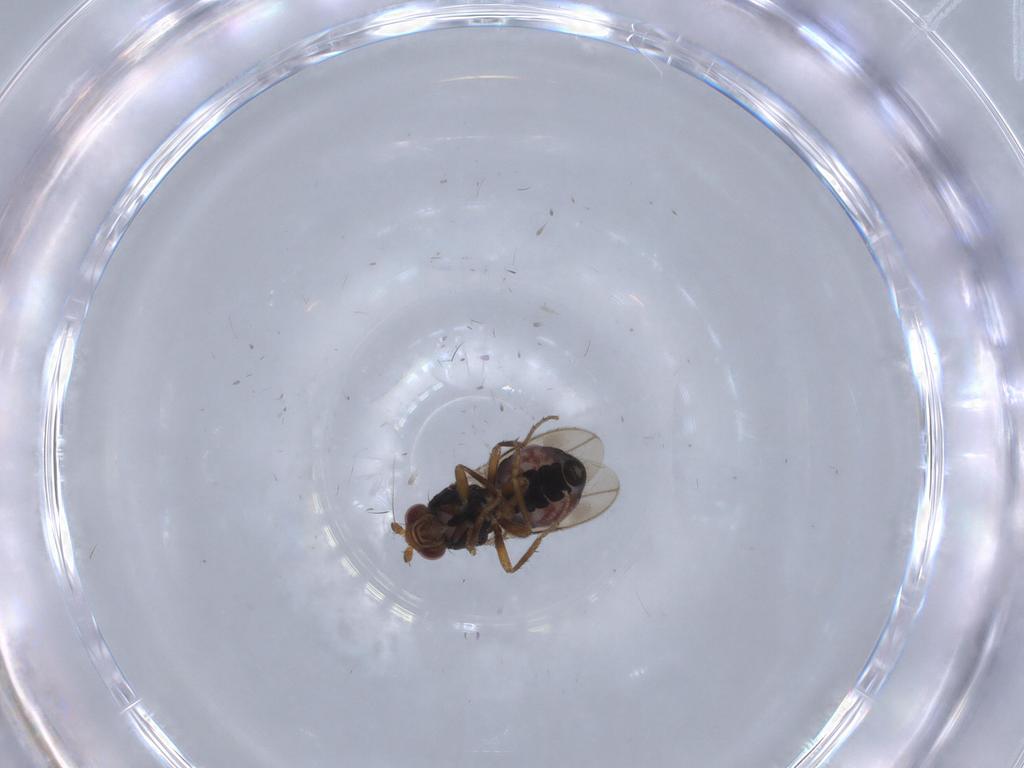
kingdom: Animalia
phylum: Arthropoda
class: Insecta
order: Diptera
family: Sphaeroceridae
